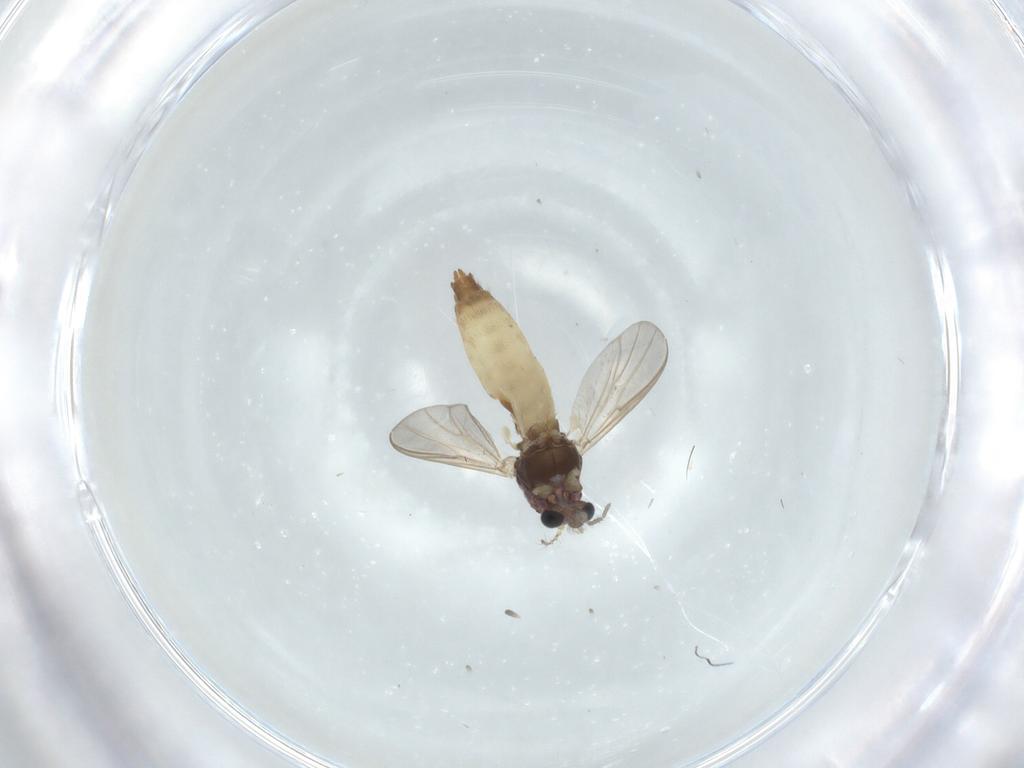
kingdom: Animalia
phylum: Arthropoda
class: Insecta
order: Diptera
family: Chironomidae
